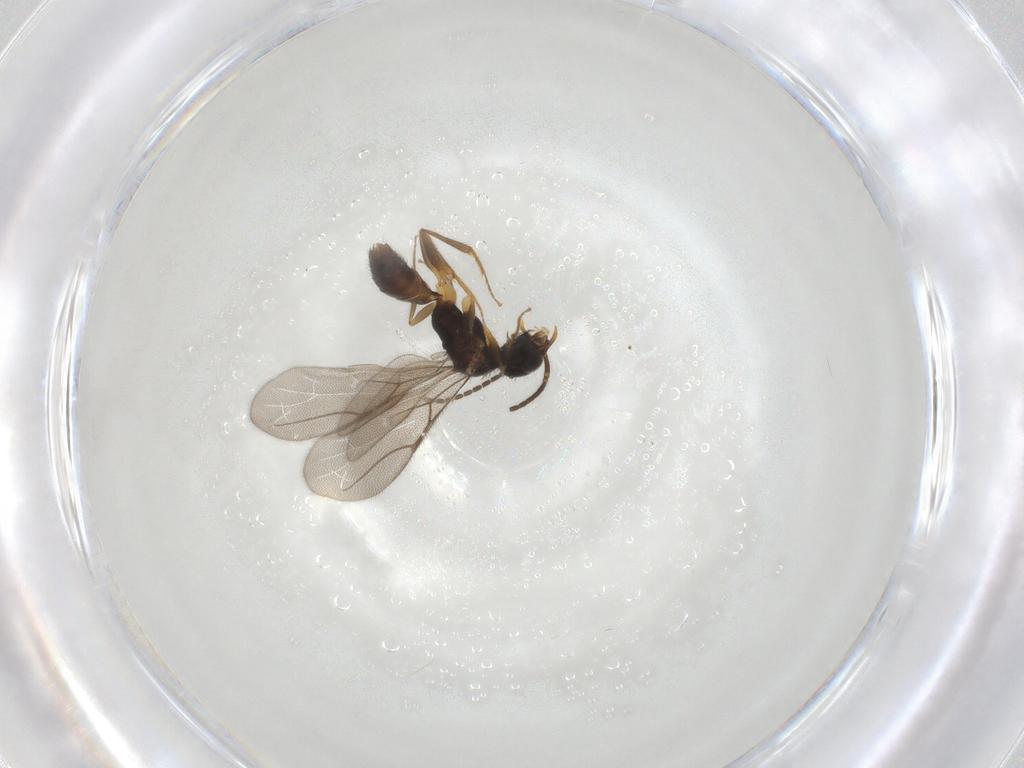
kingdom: Animalia
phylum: Arthropoda
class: Insecta
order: Hymenoptera
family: Bethylidae
